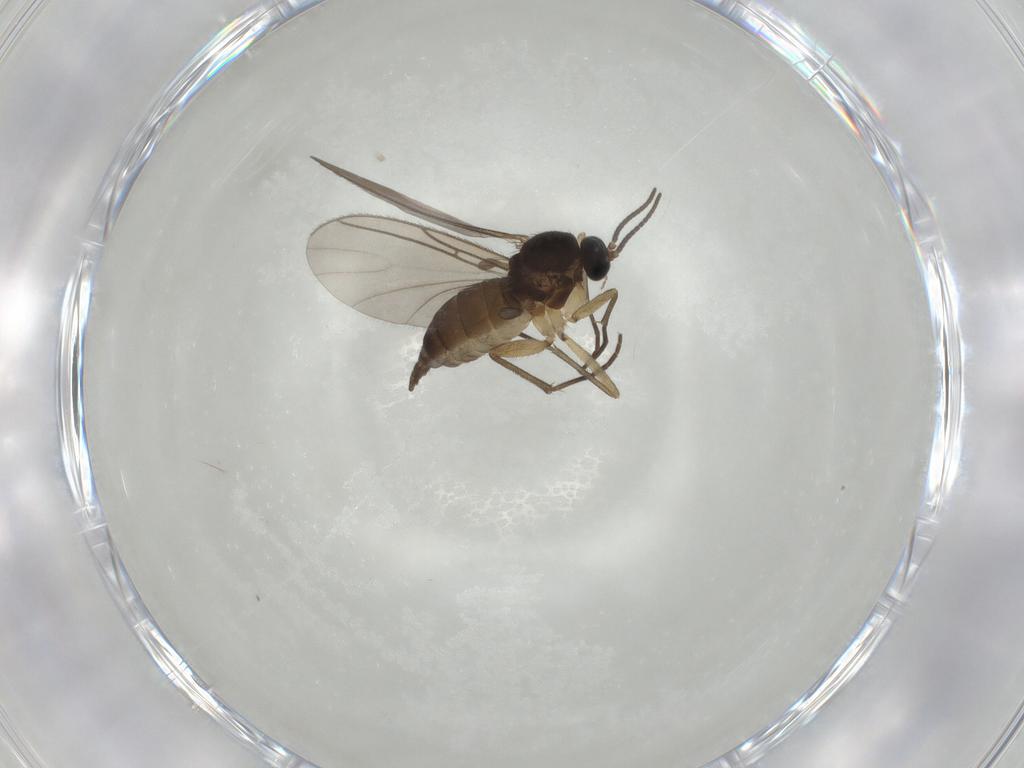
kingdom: Animalia
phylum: Arthropoda
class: Insecta
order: Diptera
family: Sciaridae
